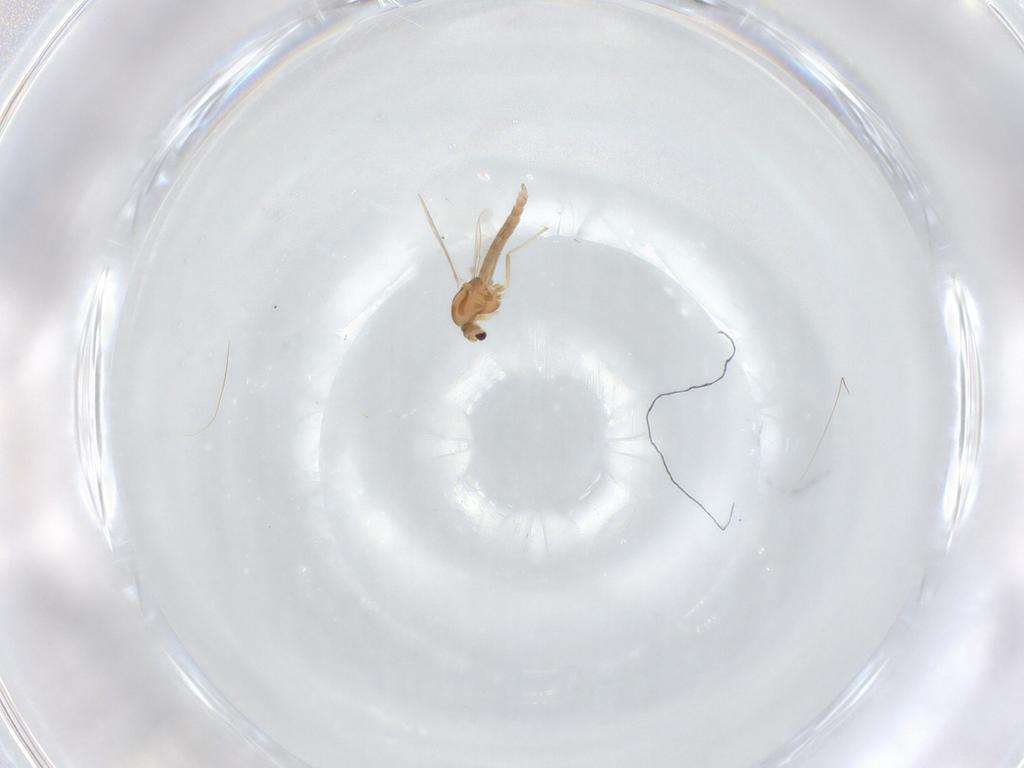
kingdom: Animalia
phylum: Arthropoda
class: Insecta
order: Diptera
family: Chironomidae
